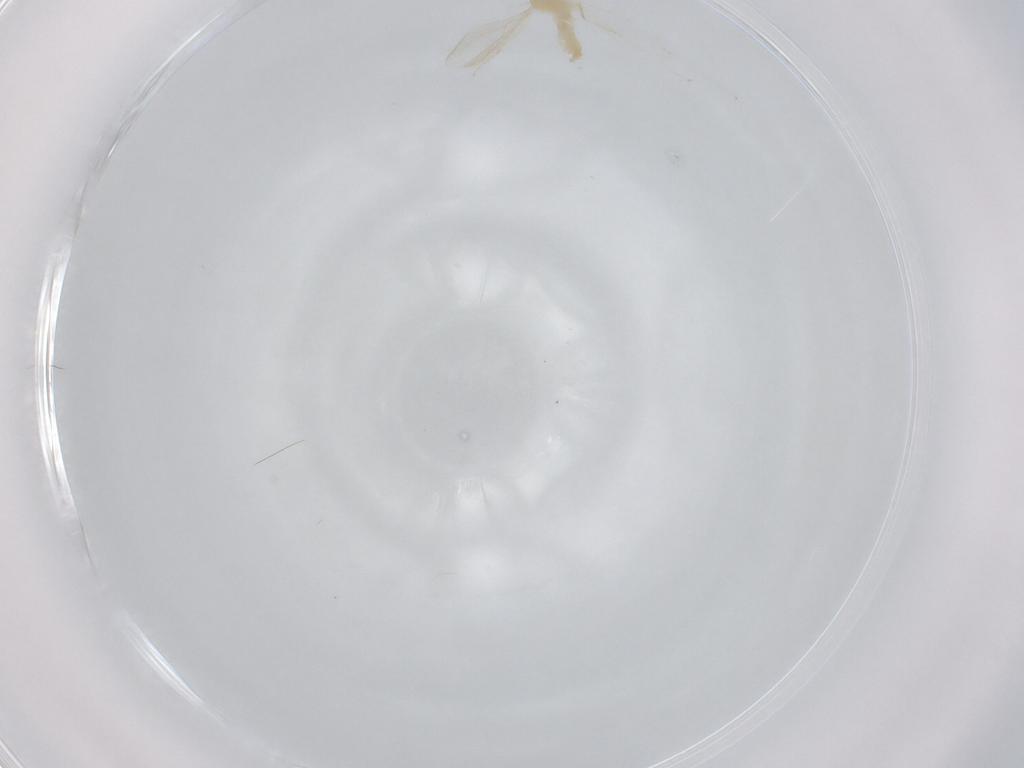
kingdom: Animalia
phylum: Arthropoda
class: Insecta
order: Diptera
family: Cecidomyiidae
